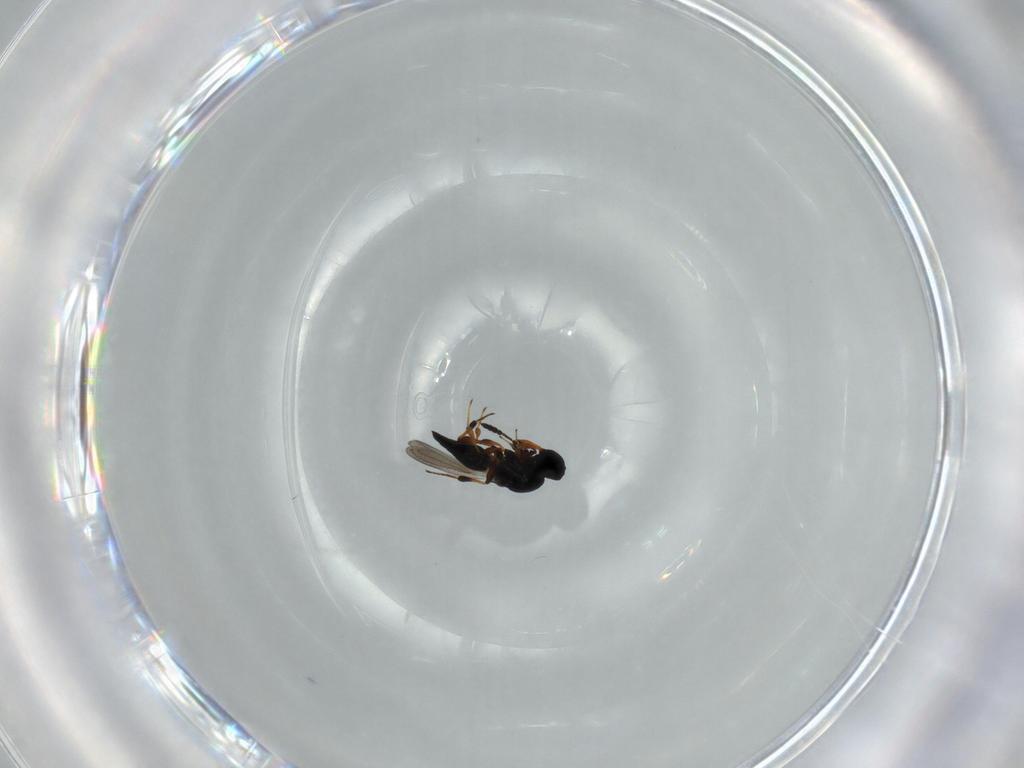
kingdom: Animalia
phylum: Arthropoda
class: Insecta
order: Hymenoptera
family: Platygastridae
